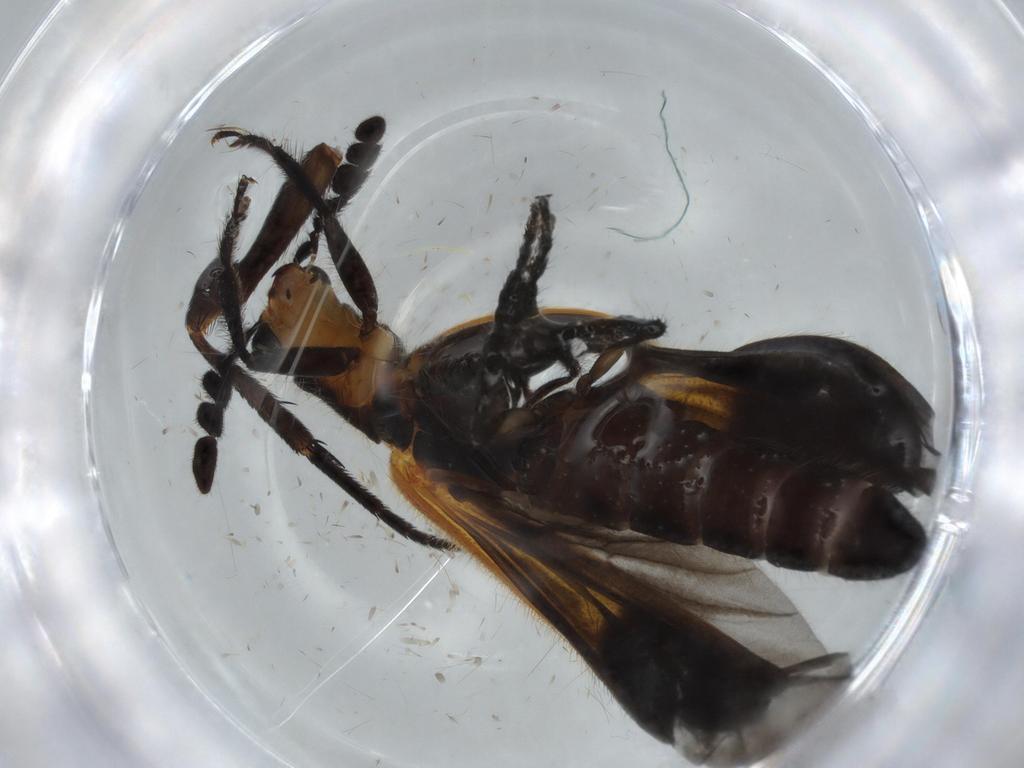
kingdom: Animalia
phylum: Arthropoda
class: Insecta
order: Coleoptera
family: Cleridae
